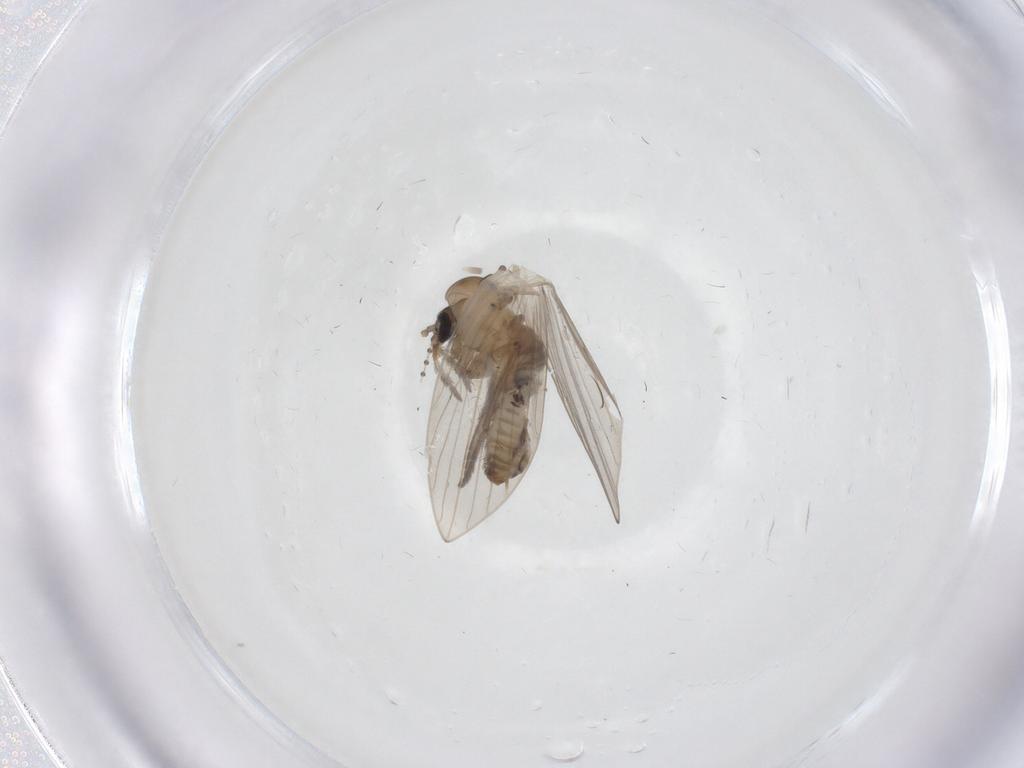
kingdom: Animalia
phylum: Arthropoda
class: Insecta
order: Diptera
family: Psychodidae
